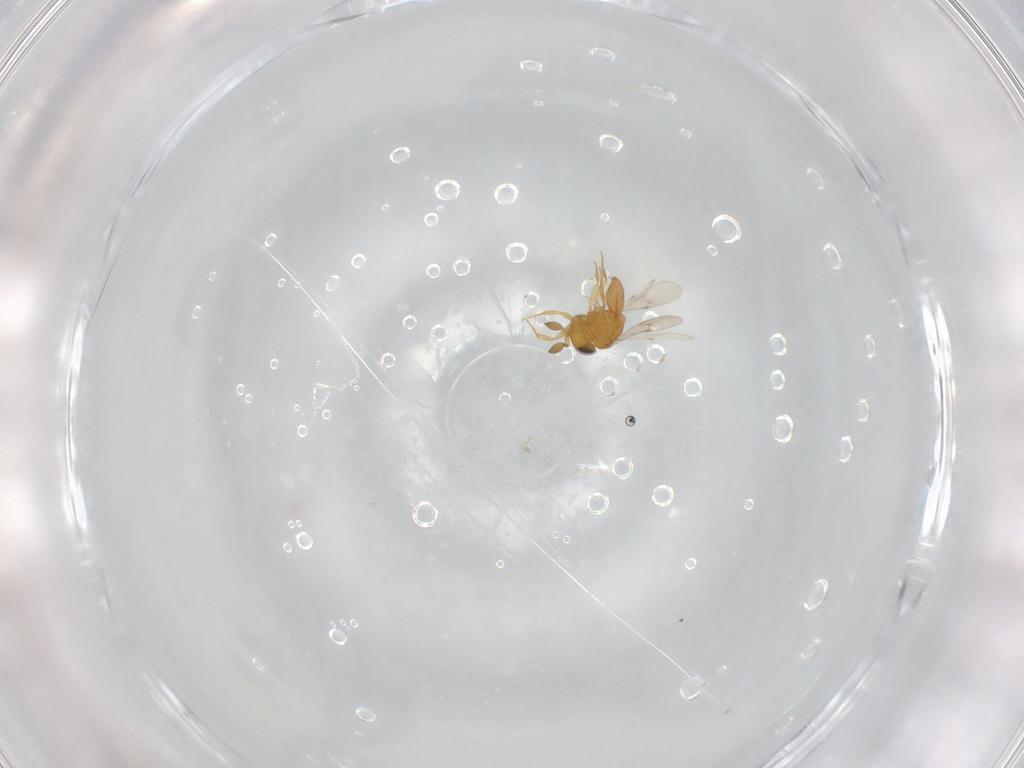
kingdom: Animalia
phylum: Arthropoda
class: Insecta
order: Hymenoptera
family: Scelionidae
